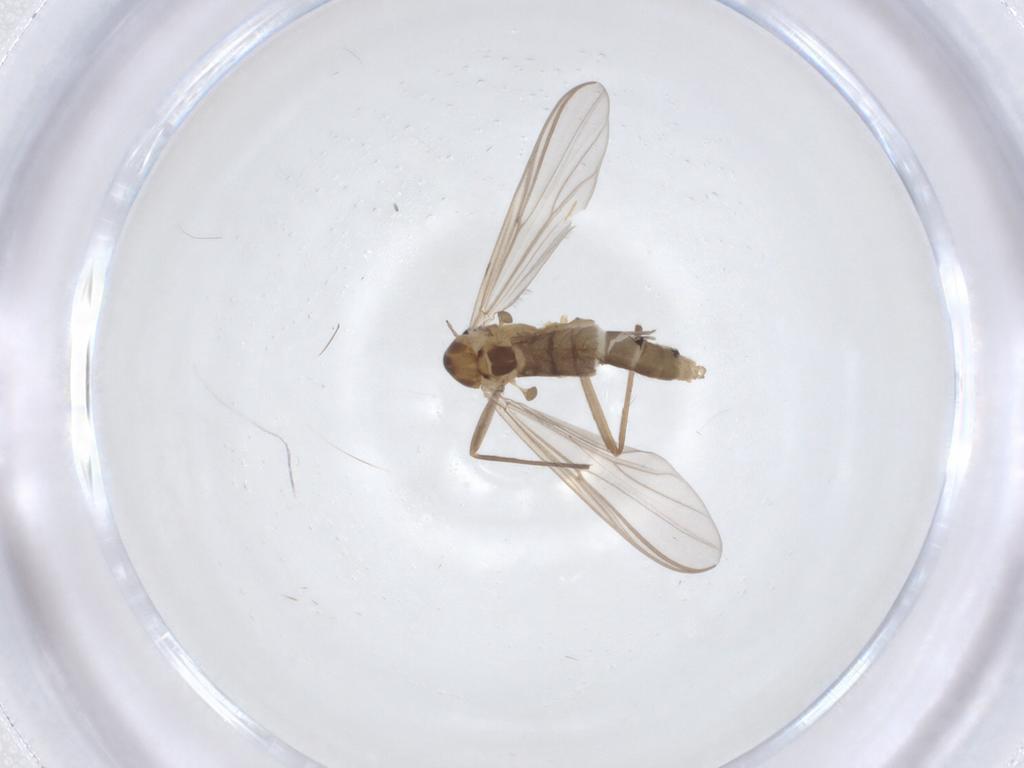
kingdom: Animalia
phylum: Arthropoda
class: Insecta
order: Diptera
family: Chironomidae
